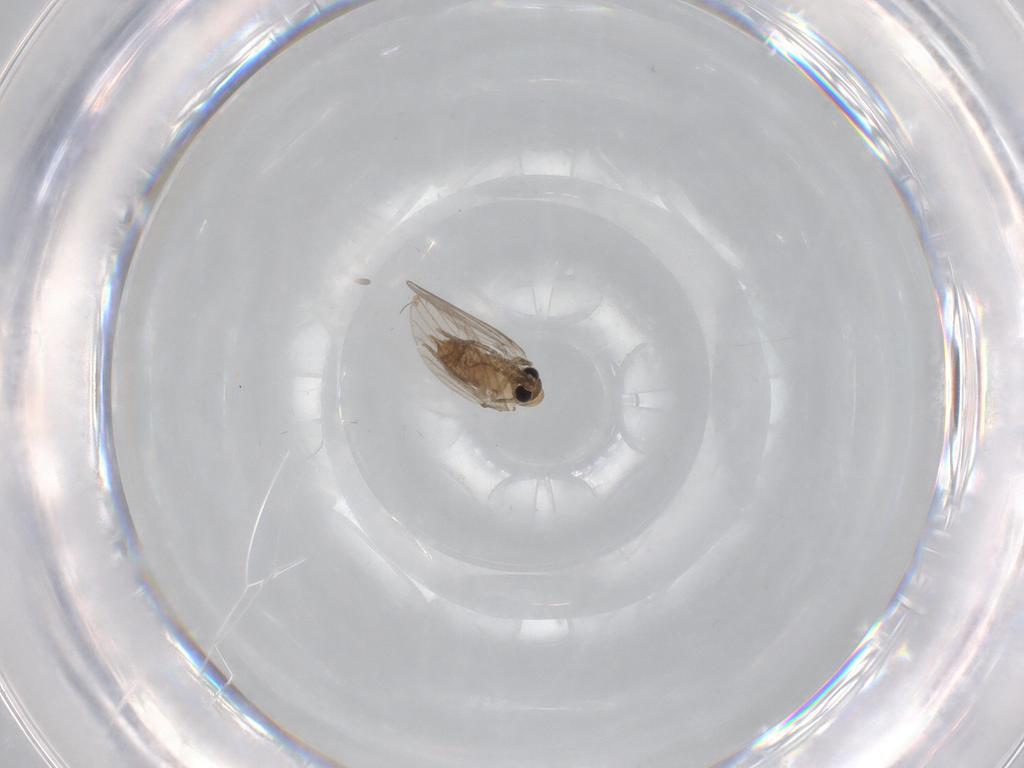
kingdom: Animalia
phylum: Arthropoda
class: Insecta
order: Diptera
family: Psychodidae
